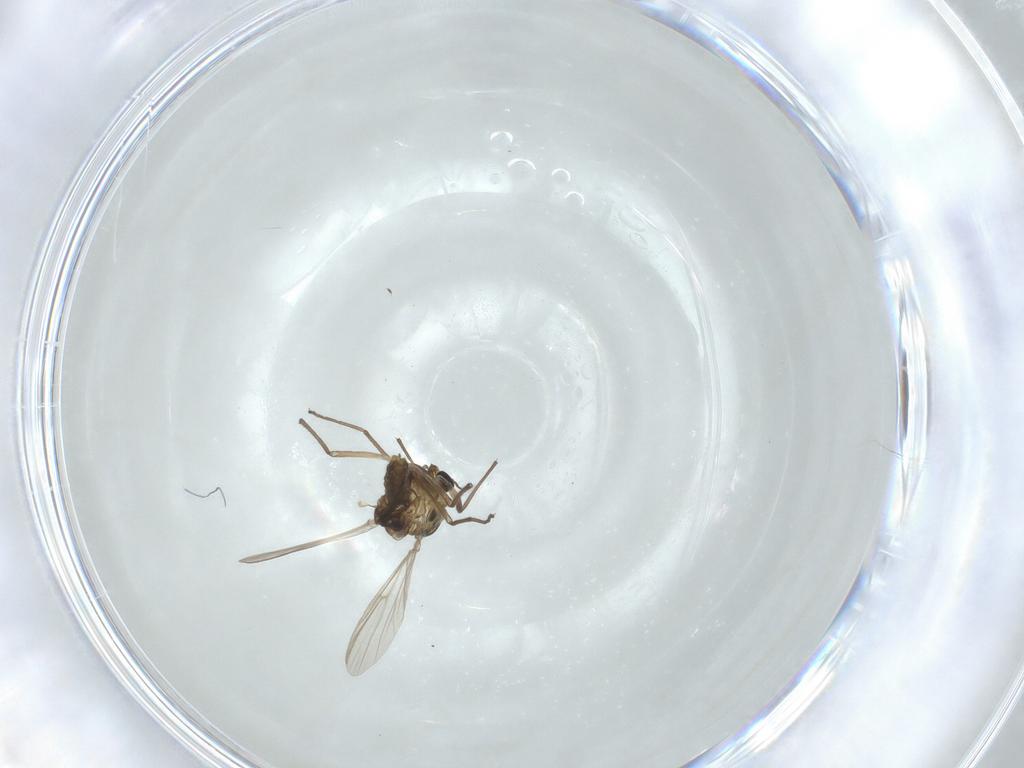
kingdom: Animalia
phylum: Arthropoda
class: Insecta
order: Diptera
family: Chironomidae
